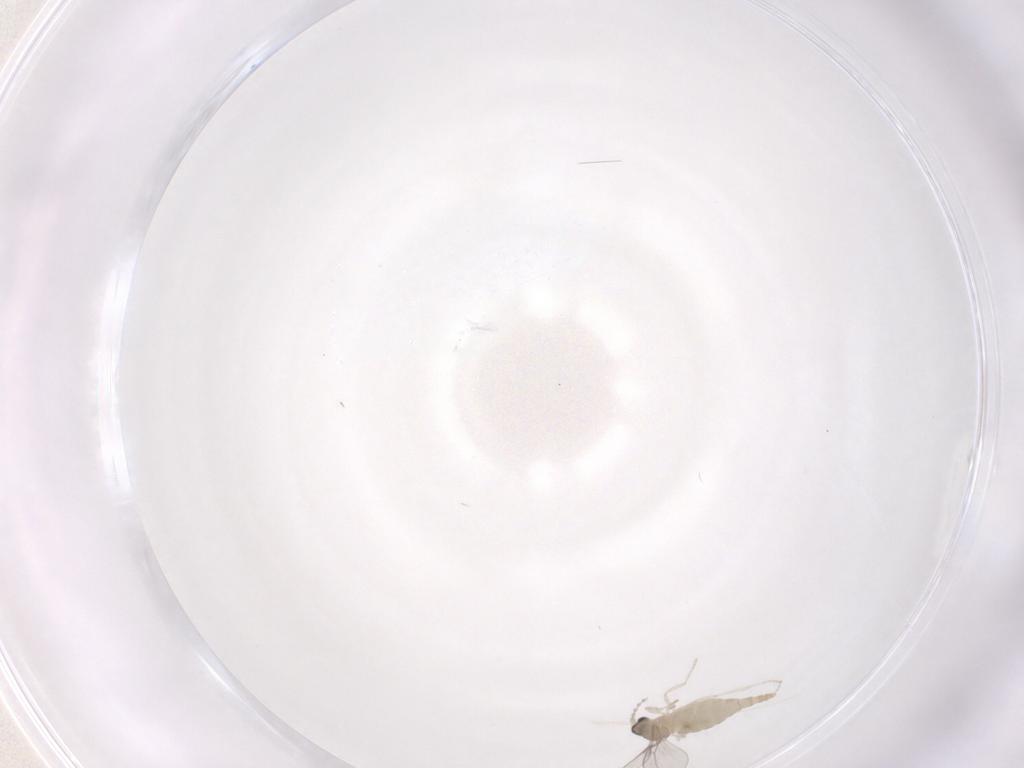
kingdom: Animalia
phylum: Arthropoda
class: Insecta
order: Diptera
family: Cecidomyiidae
